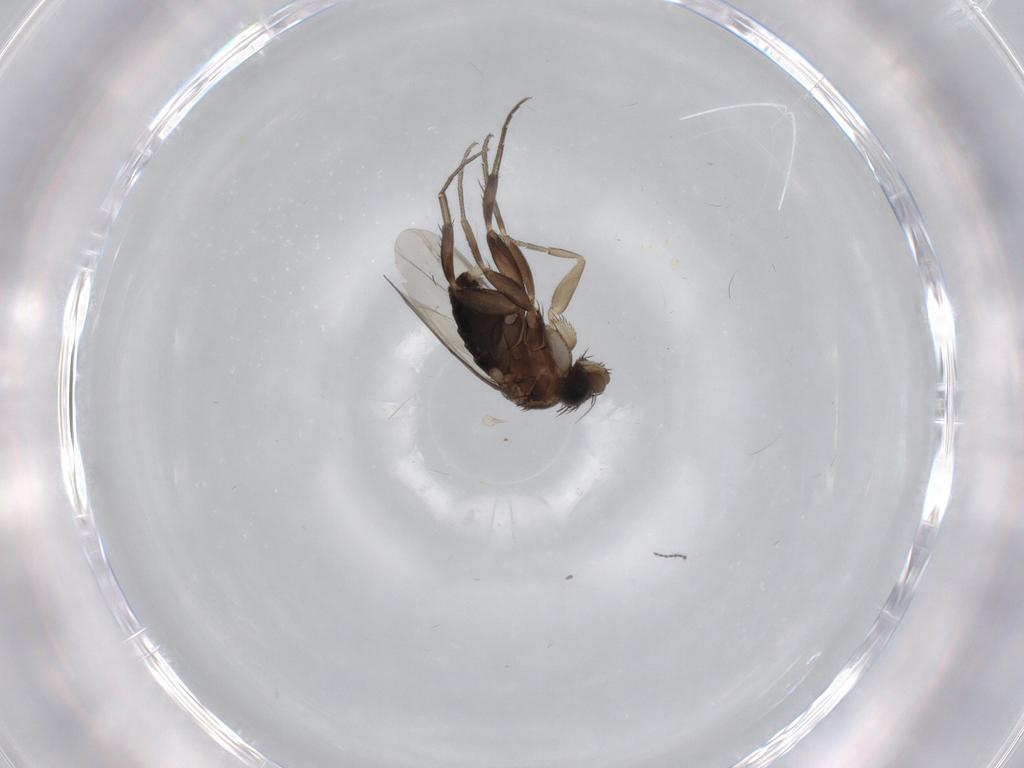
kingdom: Animalia
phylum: Arthropoda
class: Insecta
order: Diptera
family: Phoridae
